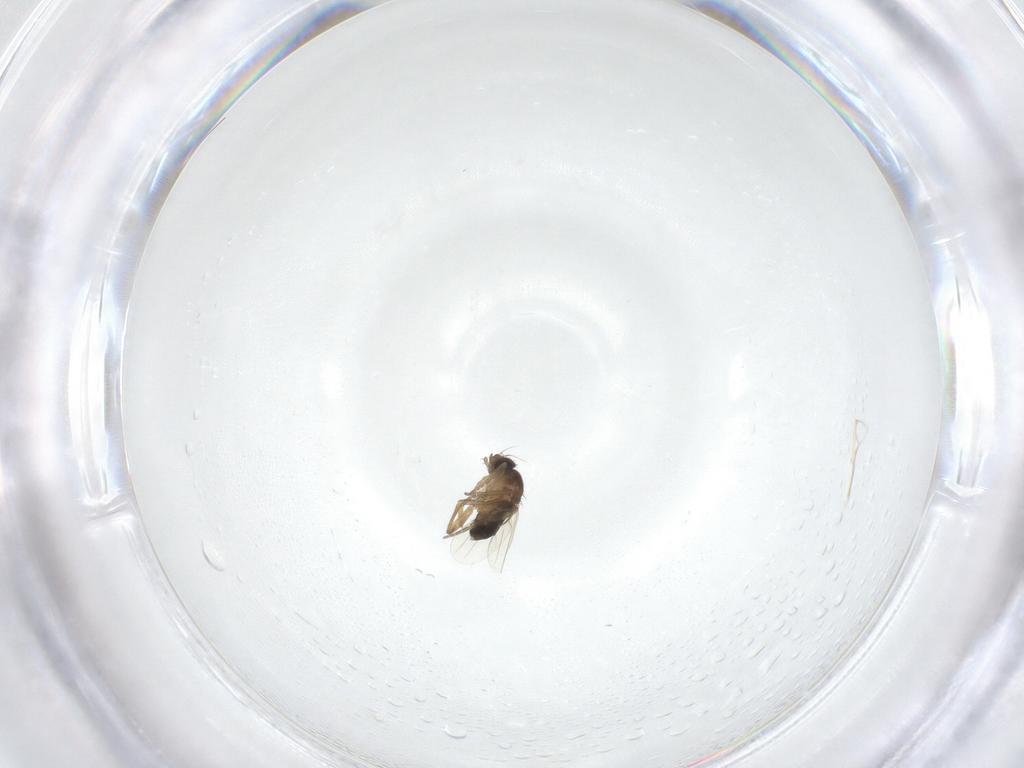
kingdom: Animalia
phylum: Arthropoda
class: Insecta
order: Diptera
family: Phoridae
